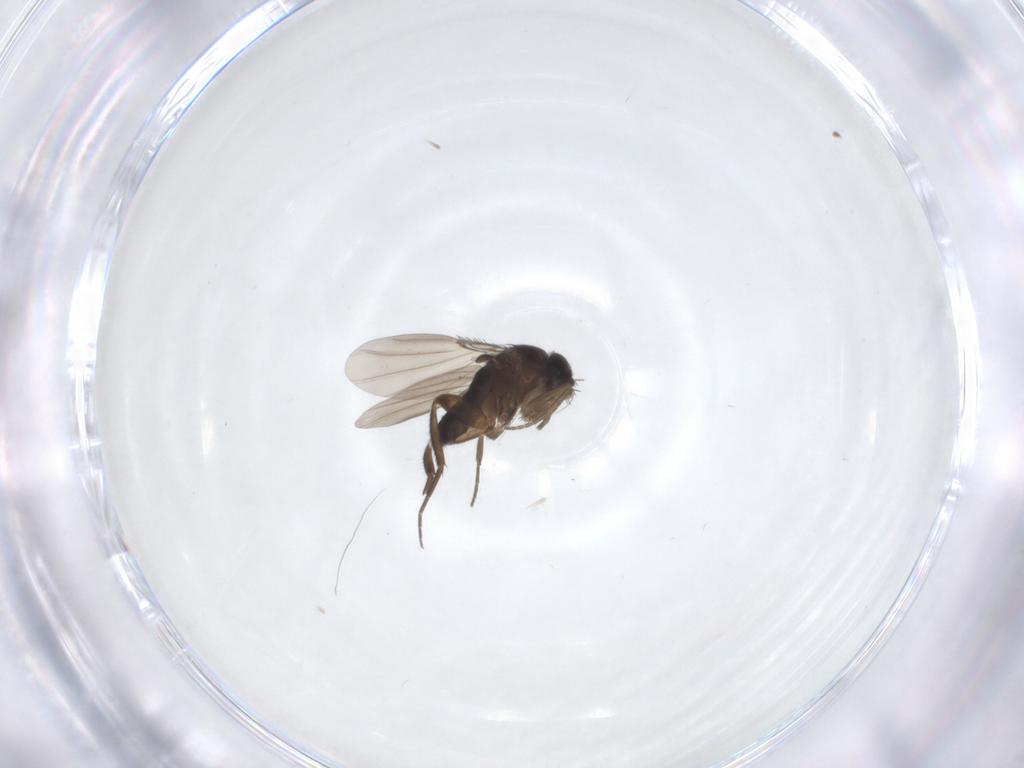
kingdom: Animalia
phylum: Arthropoda
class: Insecta
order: Diptera
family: Phoridae
